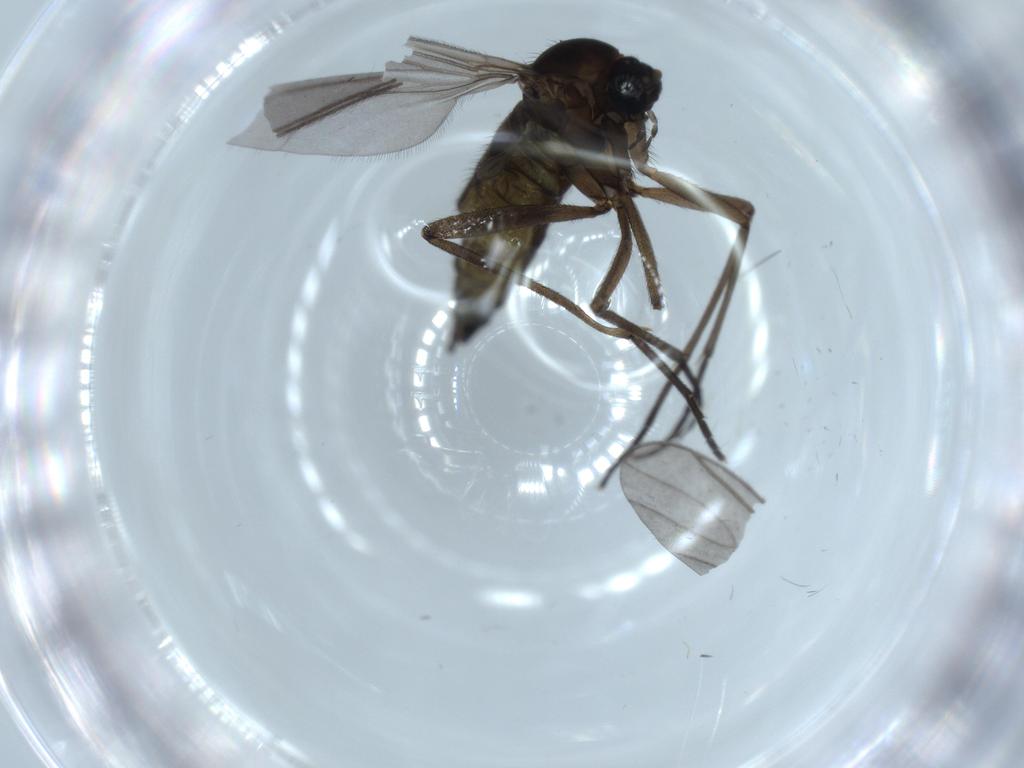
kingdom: Animalia
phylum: Arthropoda
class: Insecta
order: Diptera
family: Sciaridae
